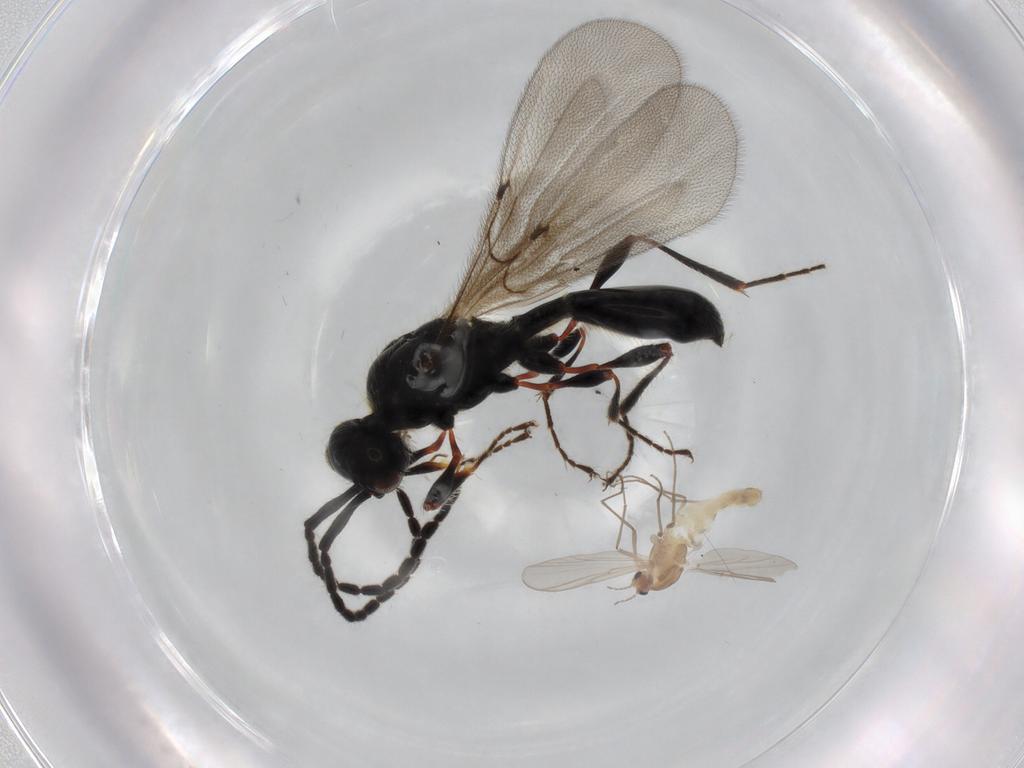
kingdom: Animalia
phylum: Arthropoda
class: Insecta
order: Diptera
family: Chironomidae
